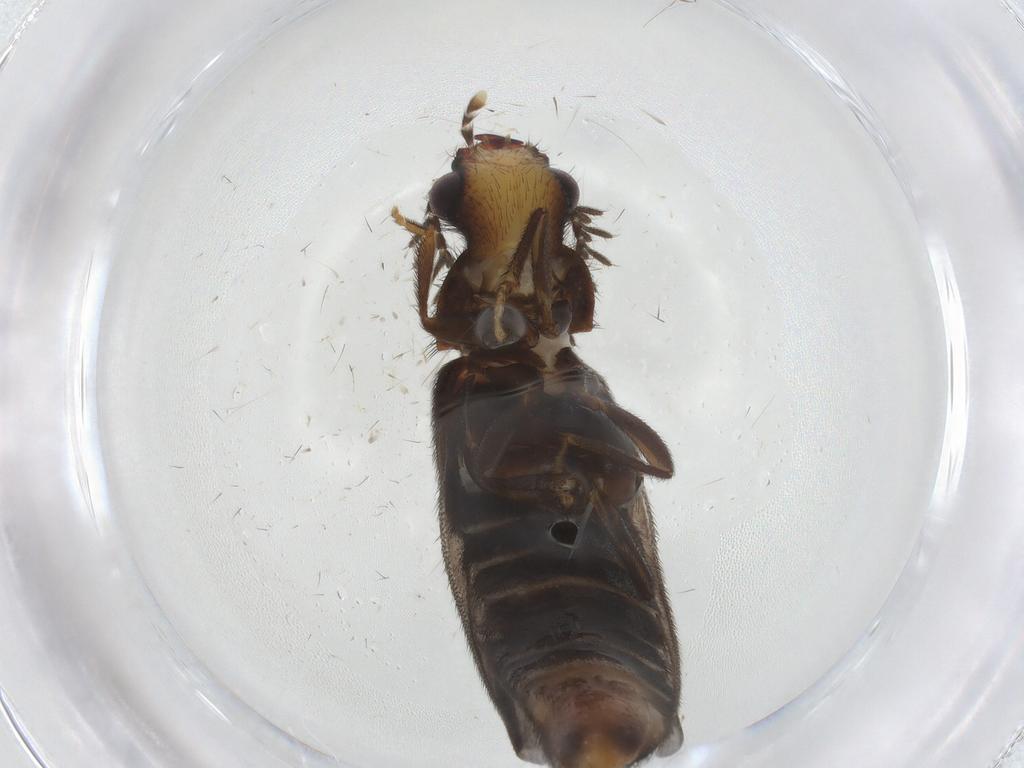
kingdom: Animalia
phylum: Arthropoda
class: Insecta
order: Coleoptera
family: Phengodidae
